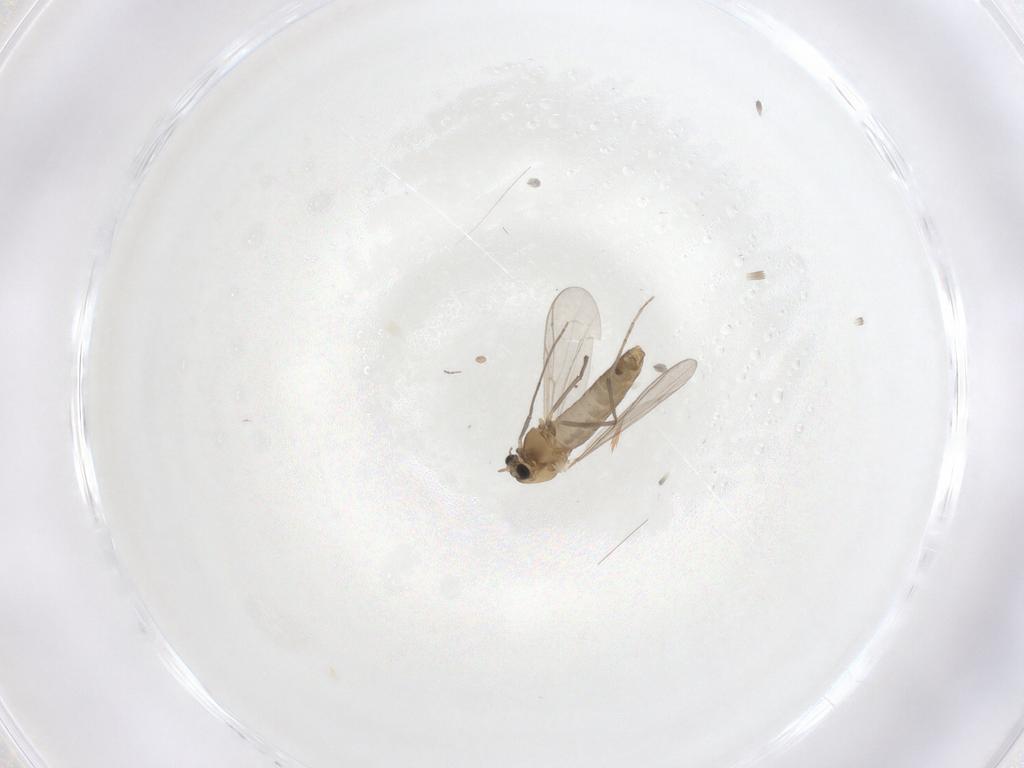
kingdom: Animalia
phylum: Arthropoda
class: Insecta
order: Diptera
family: Chironomidae
